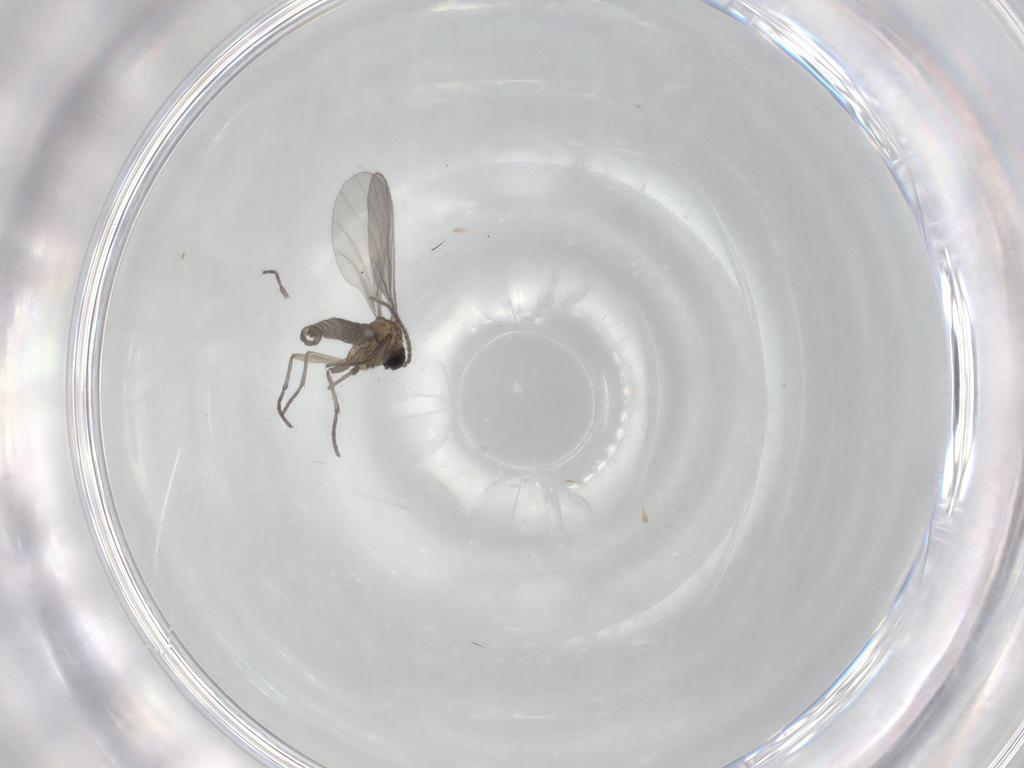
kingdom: Animalia
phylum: Arthropoda
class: Insecta
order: Diptera
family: Sciaridae
